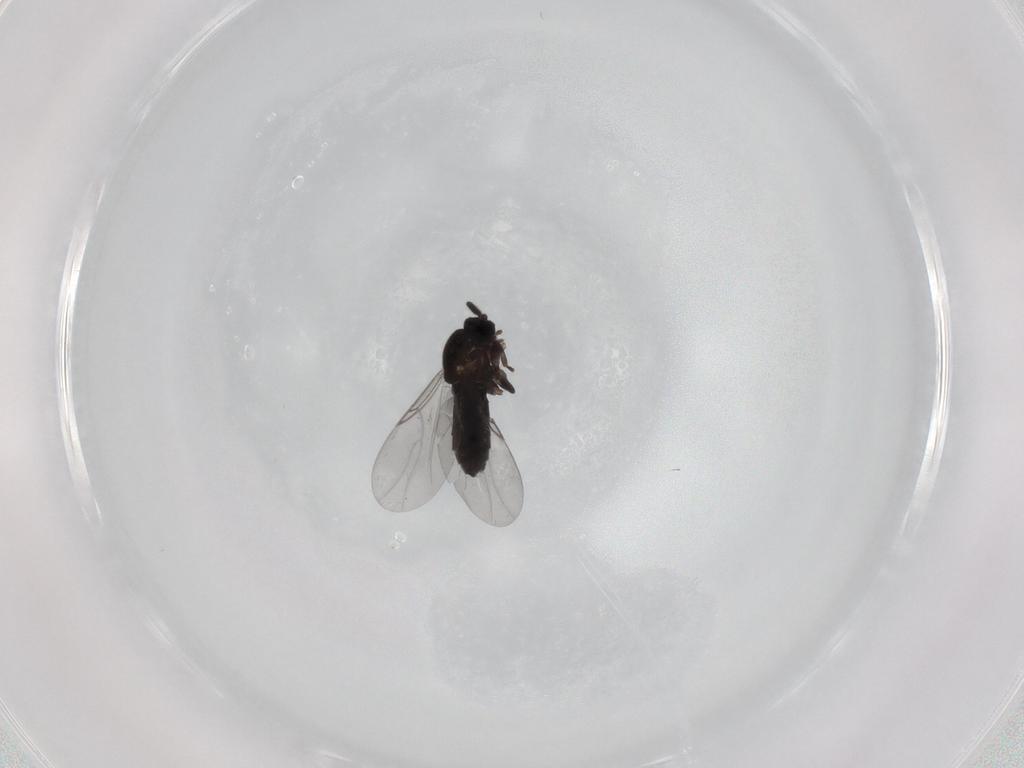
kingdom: Animalia
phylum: Arthropoda
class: Insecta
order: Diptera
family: Scatopsidae
